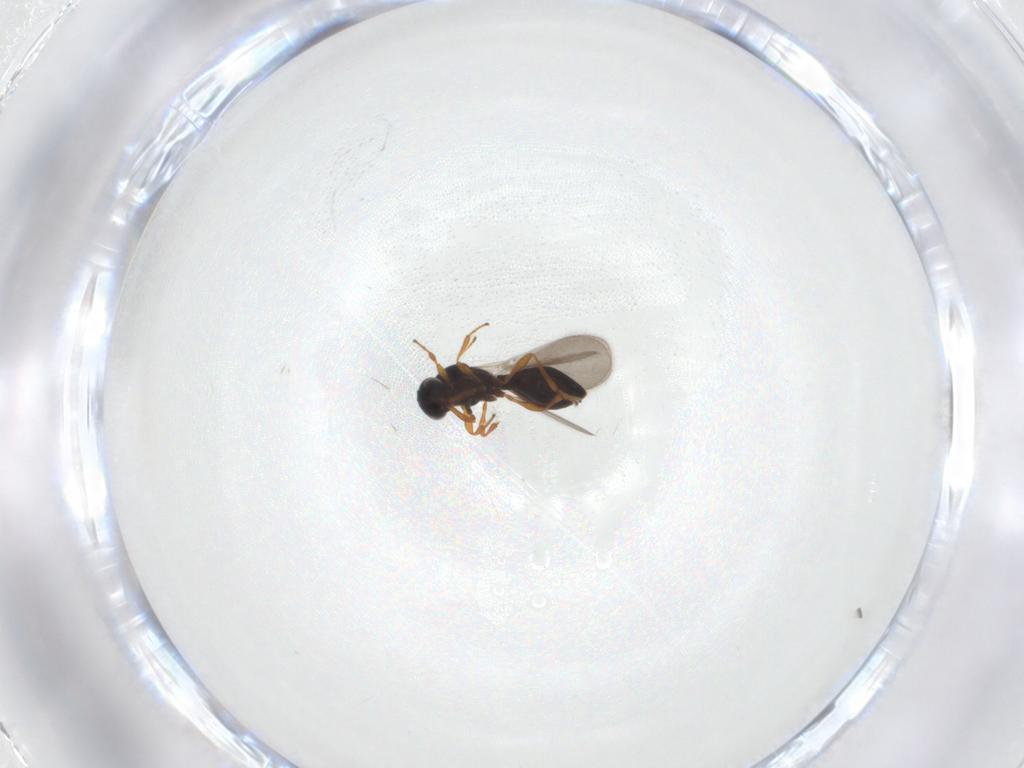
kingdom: Animalia
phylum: Arthropoda
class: Insecta
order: Hymenoptera
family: Platygastridae
